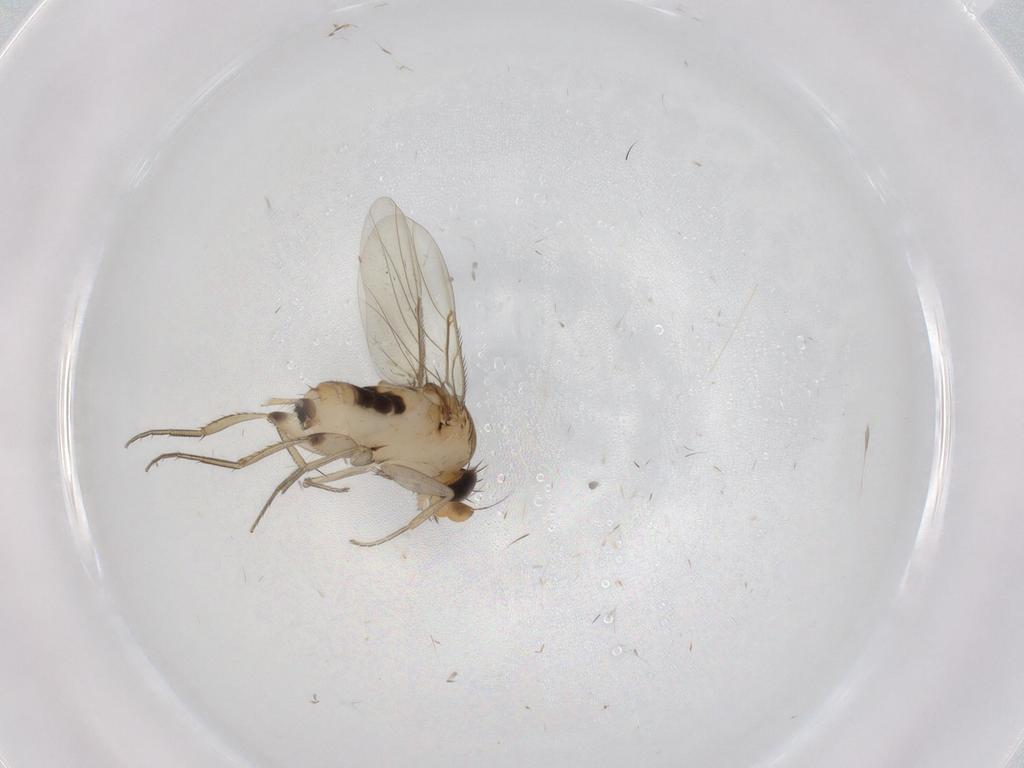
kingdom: Animalia
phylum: Arthropoda
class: Insecta
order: Diptera
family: Phoridae
